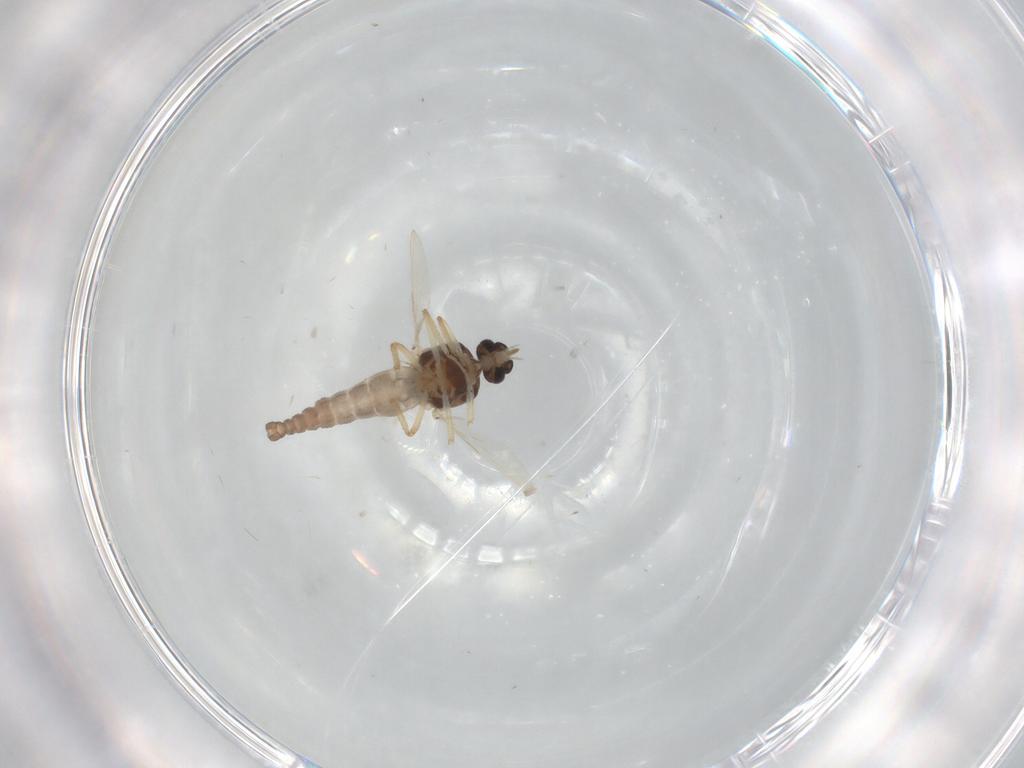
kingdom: Animalia
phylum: Arthropoda
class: Insecta
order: Diptera
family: Ceratopogonidae
